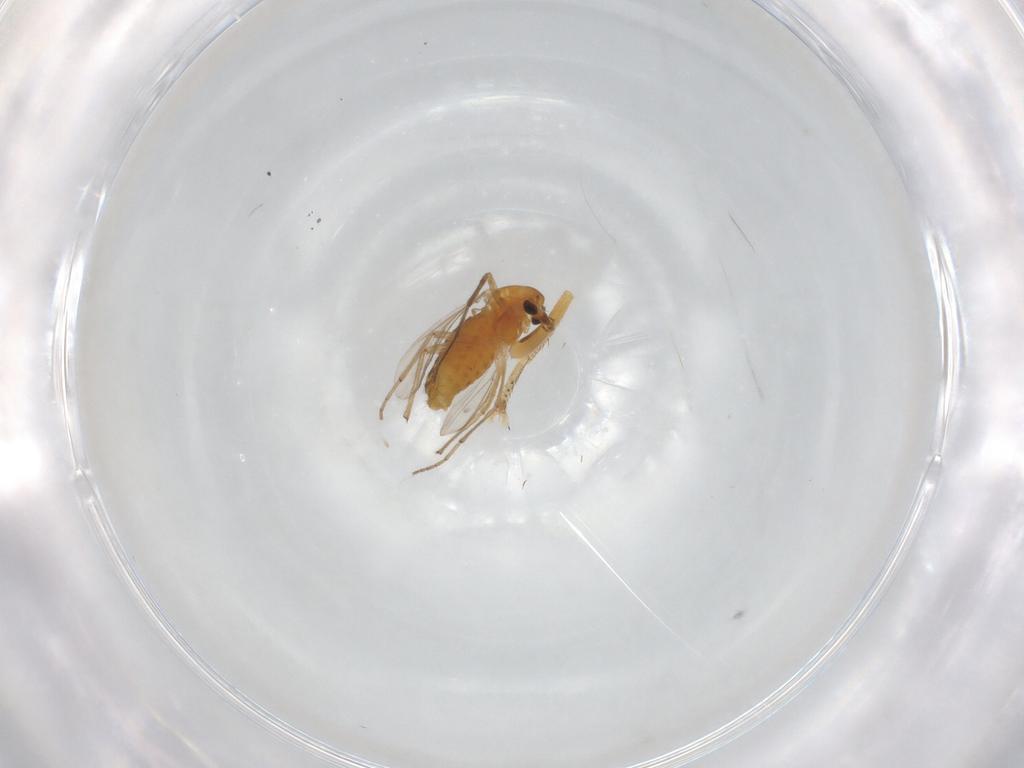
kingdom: Animalia
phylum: Arthropoda
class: Insecta
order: Diptera
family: Chironomidae
